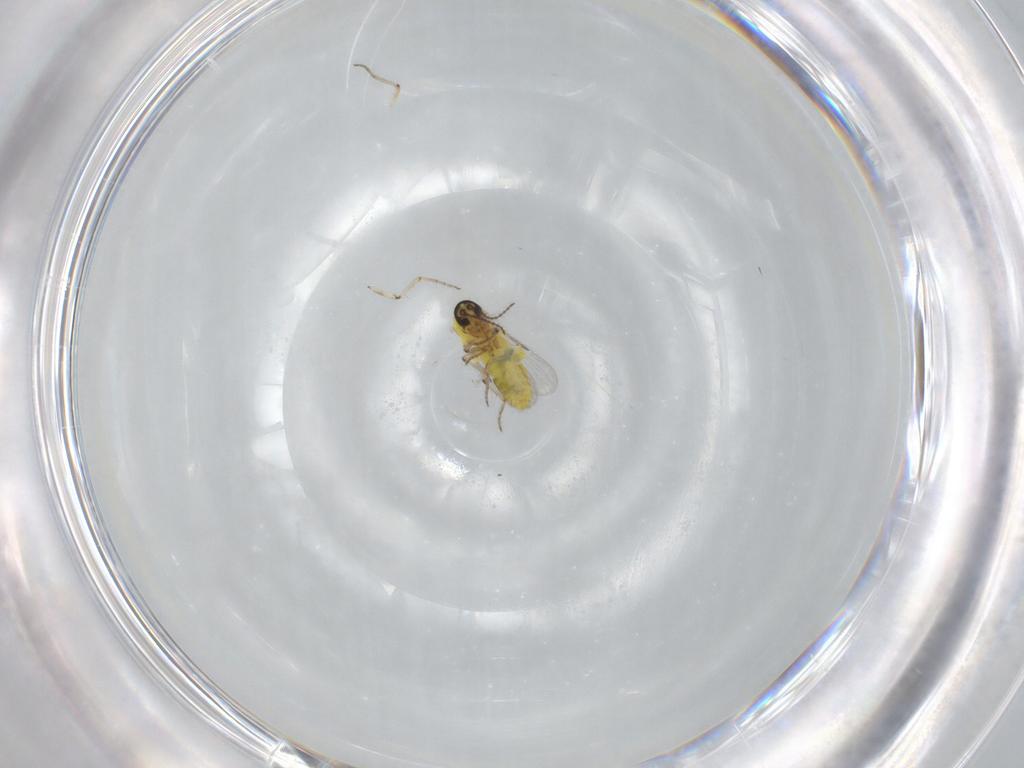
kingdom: Animalia
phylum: Arthropoda
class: Insecta
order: Diptera
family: Ceratopogonidae
